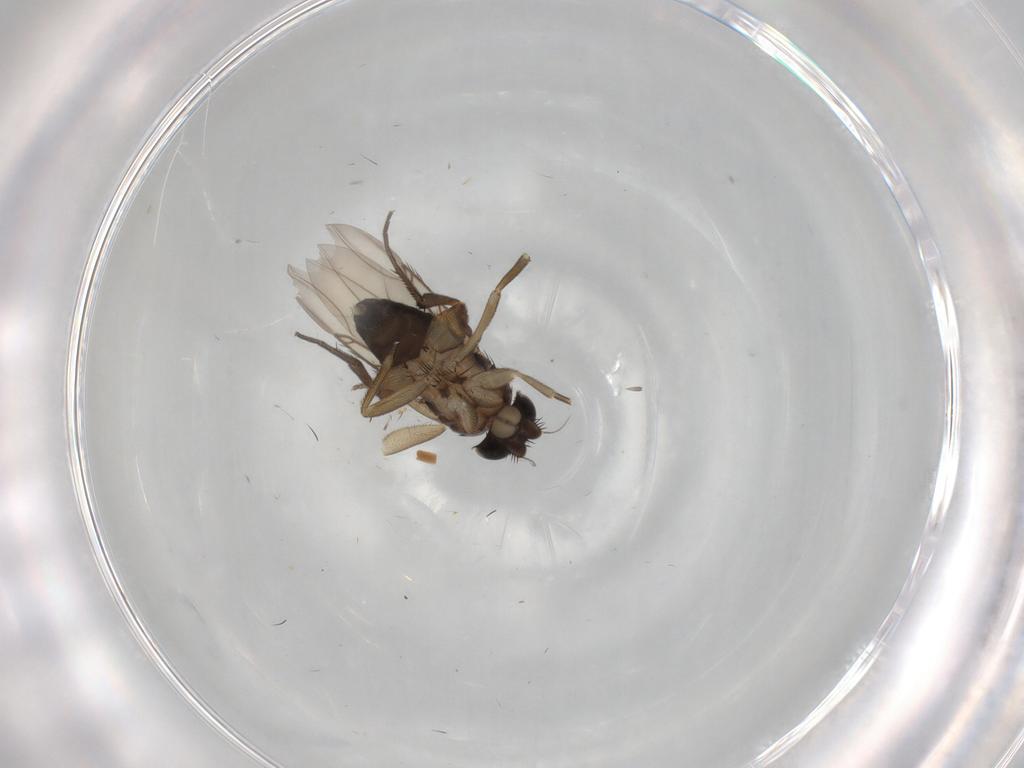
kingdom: Animalia
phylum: Arthropoda
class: Insecta
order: Diptera
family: Phoridae
